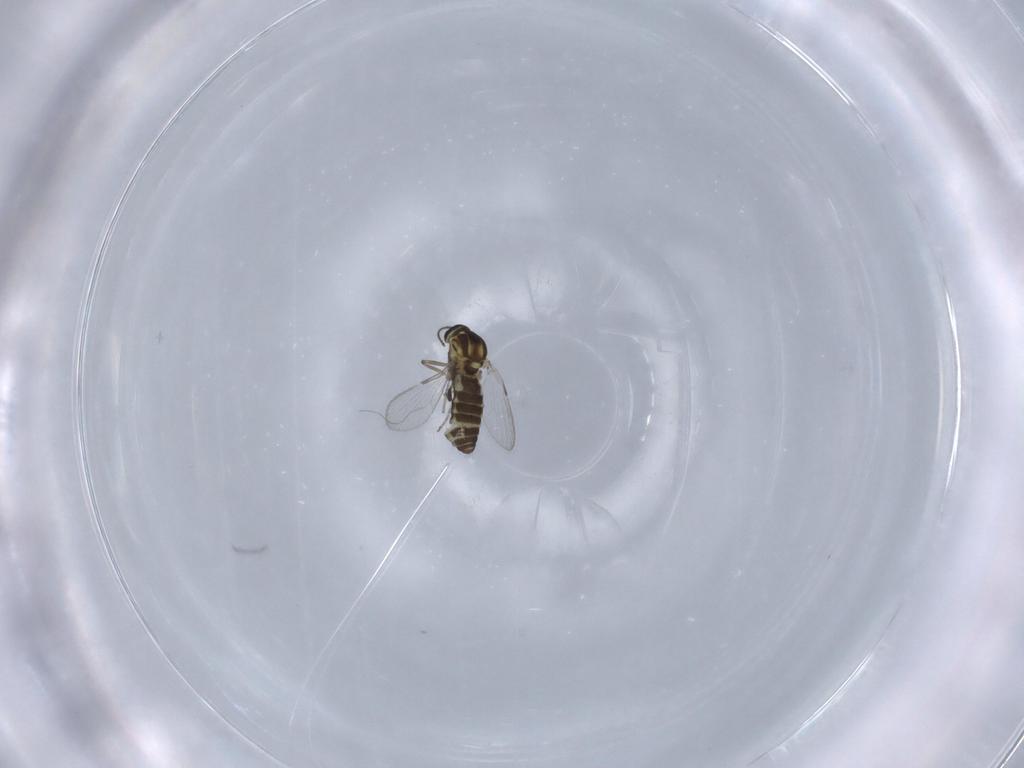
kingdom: Animalia
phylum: Arthropoda
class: Insecta
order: Diptera
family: Ceratopogonidae
